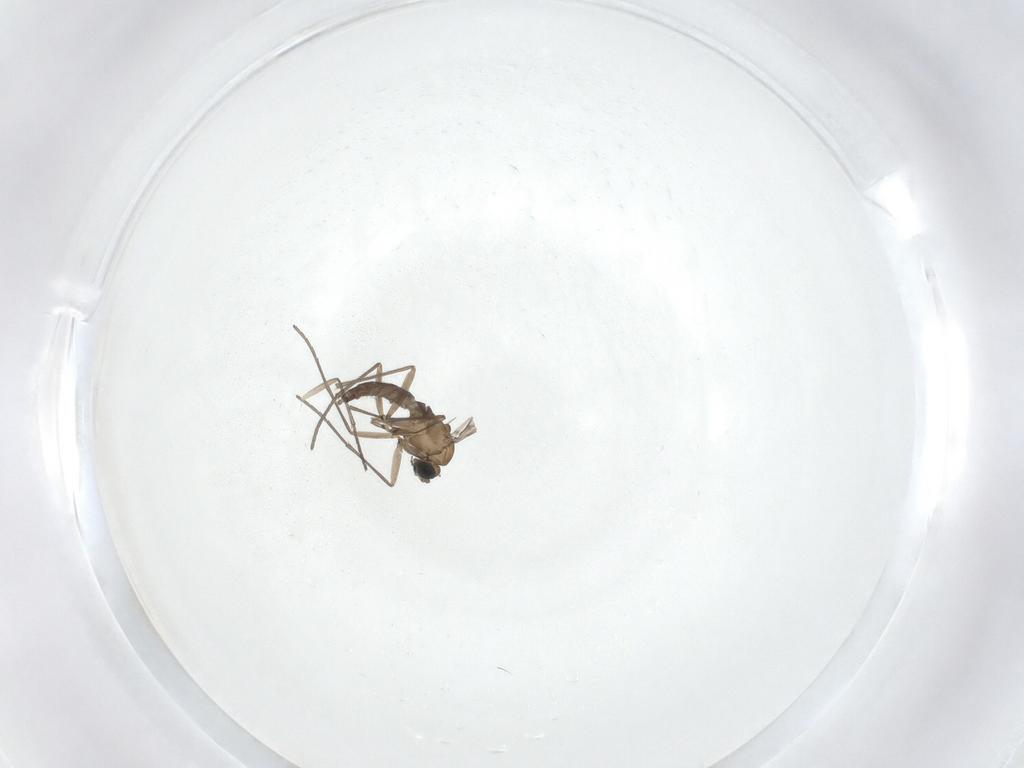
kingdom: Animalia
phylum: Arthropoda
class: Insecta
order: Diptera
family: Sciaridae
